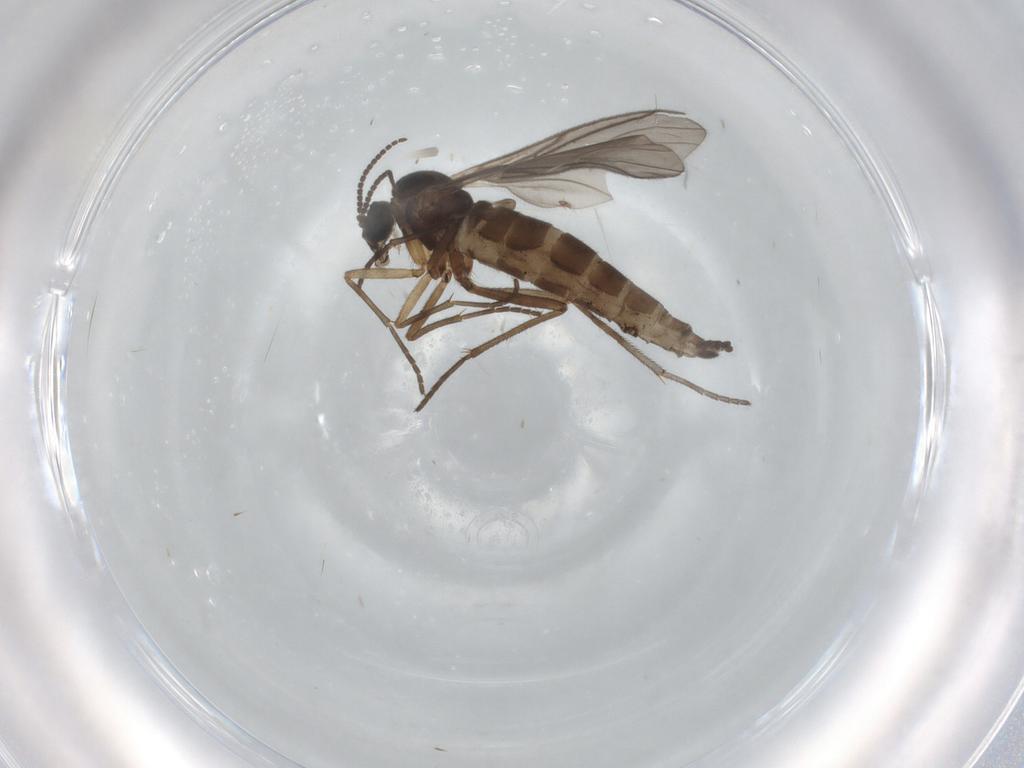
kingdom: Animalia
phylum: Arthropoda
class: Insecta
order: Diptera
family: Sciaridae
